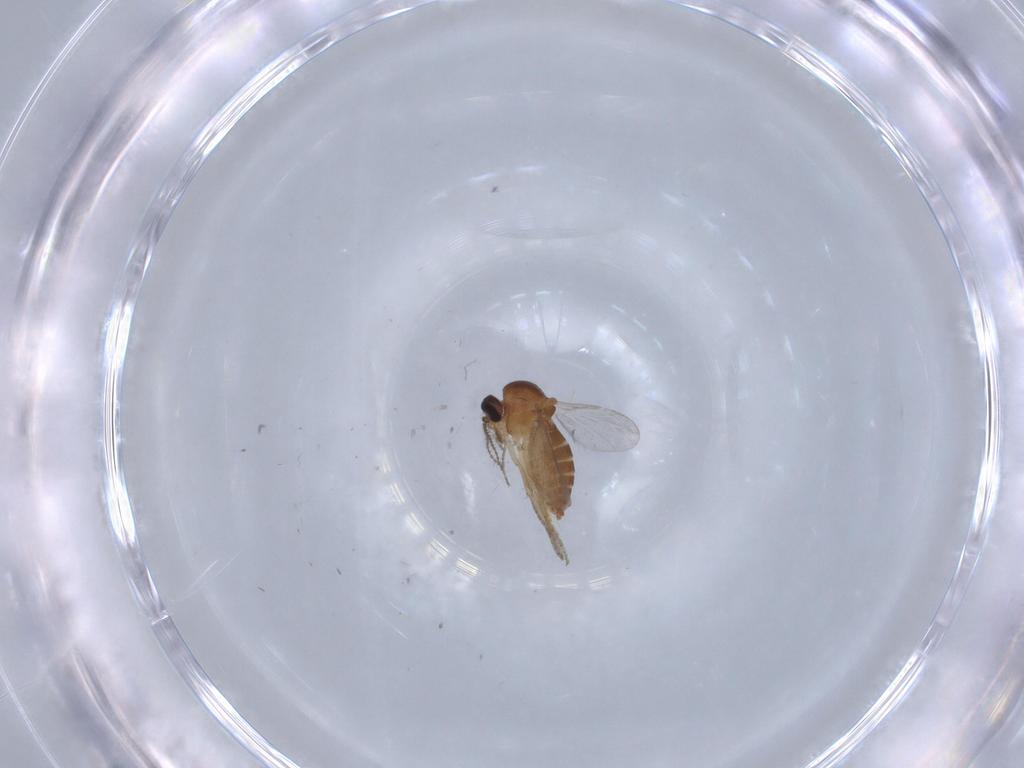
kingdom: Animalia
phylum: Arthropoda
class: Insecta
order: Diptera
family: Ceratopogonidae
